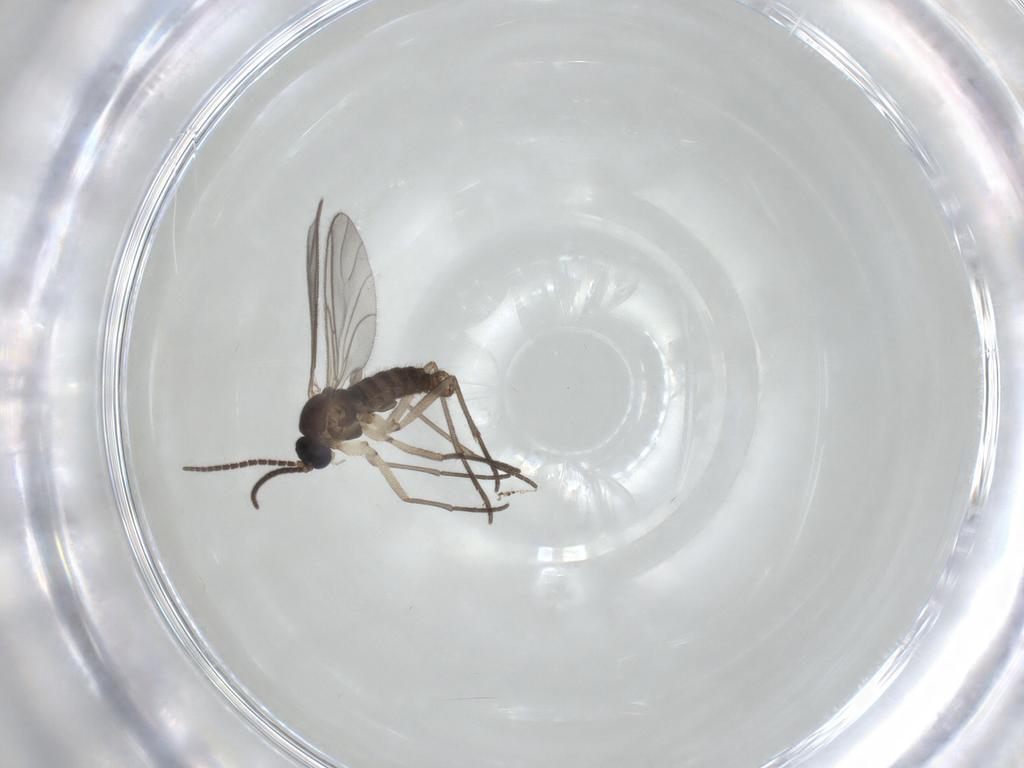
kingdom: Animalia
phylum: Arthropoda
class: Insecta
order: Diptera
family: Sciaridae
